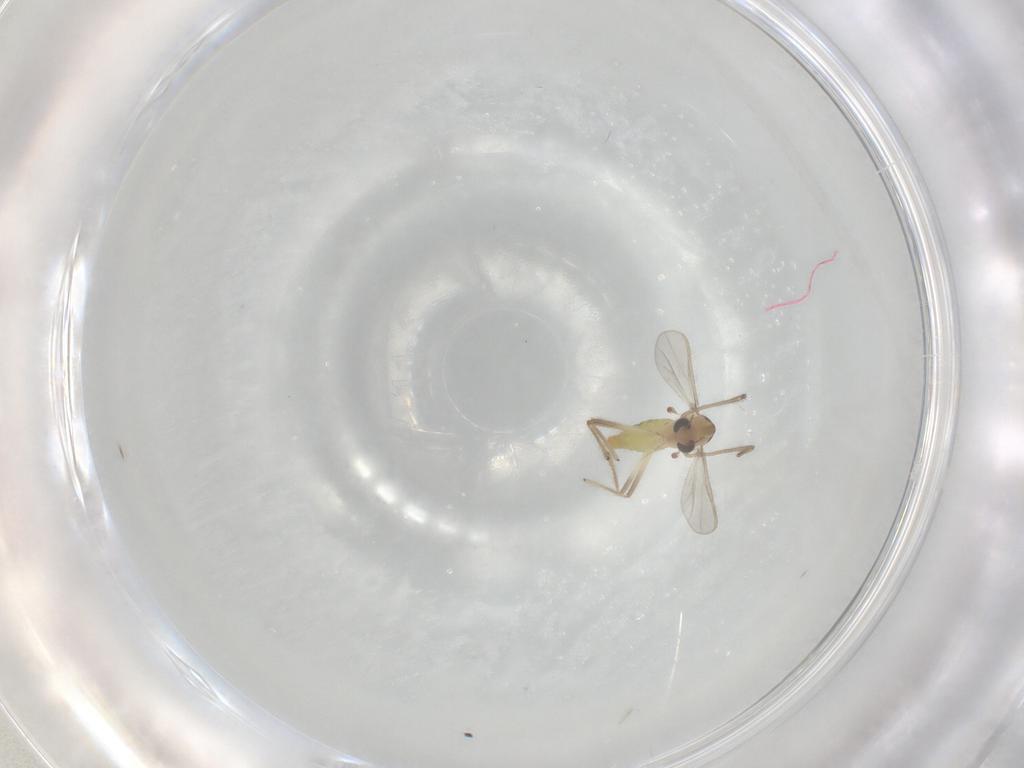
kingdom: Animalia
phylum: Arthropoda
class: Insecta
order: Diptera
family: Chironomidae
